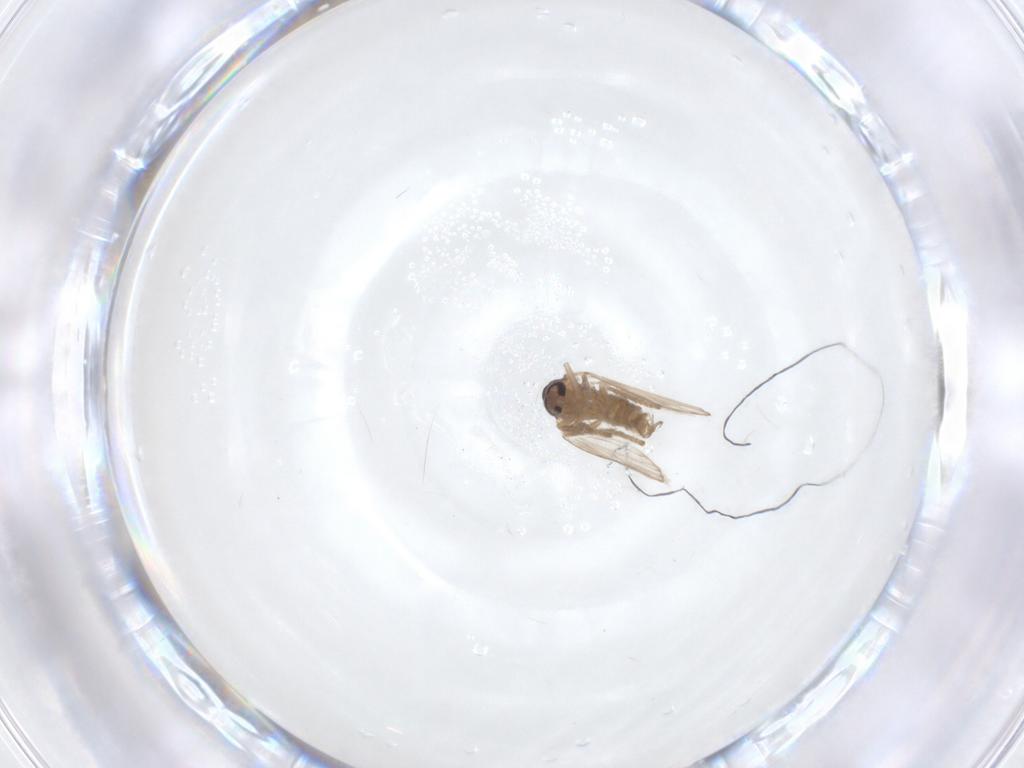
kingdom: Animalia
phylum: Arthropoda
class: Insecta
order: Diptera
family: Psychodidae
